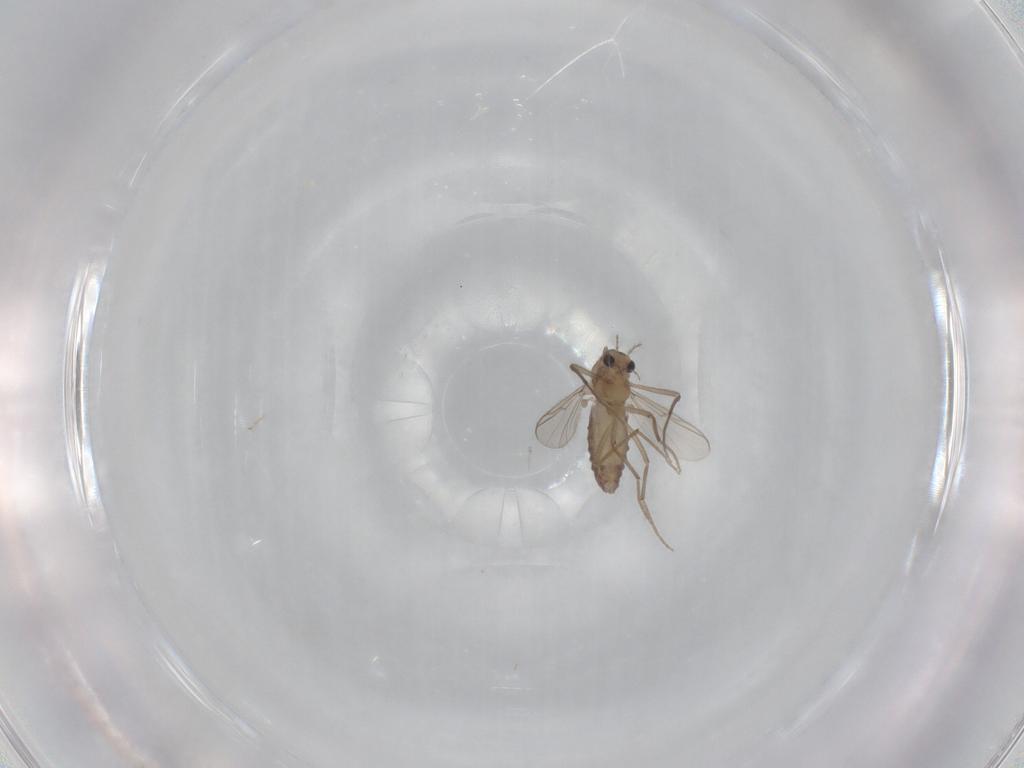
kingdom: Animalia
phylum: Arthropoda
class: Insecta
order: Diptera
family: Chironomidae
